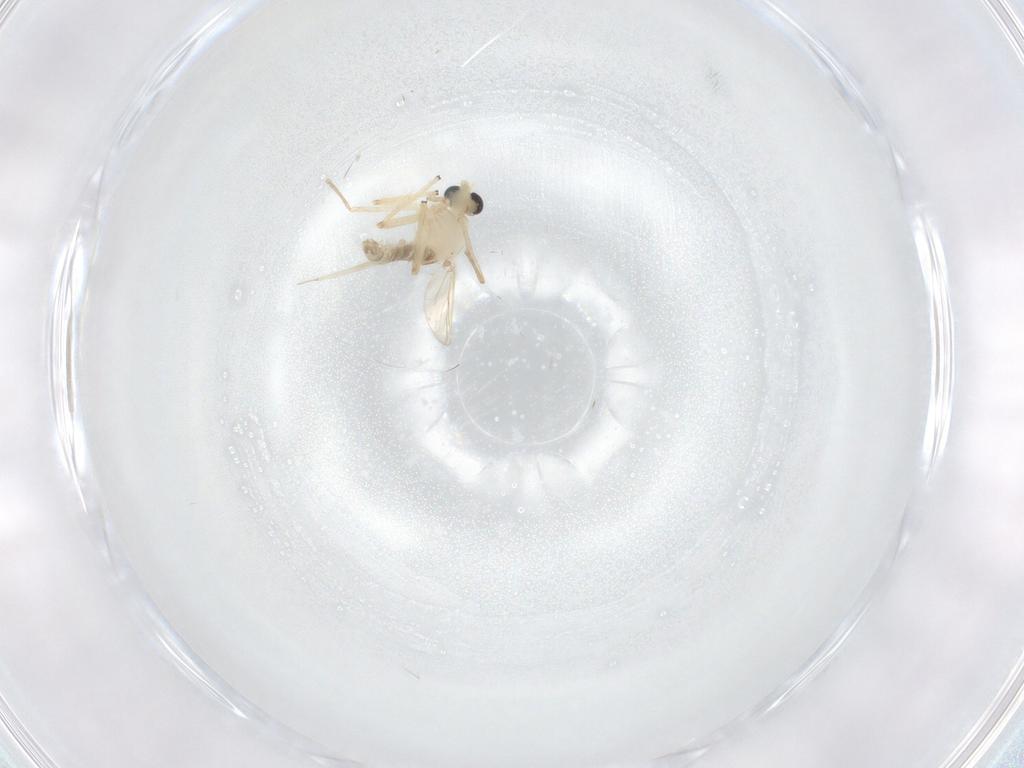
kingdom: Animalia
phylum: Arthropoda
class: Insecta
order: Diptera
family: Chironomidae
